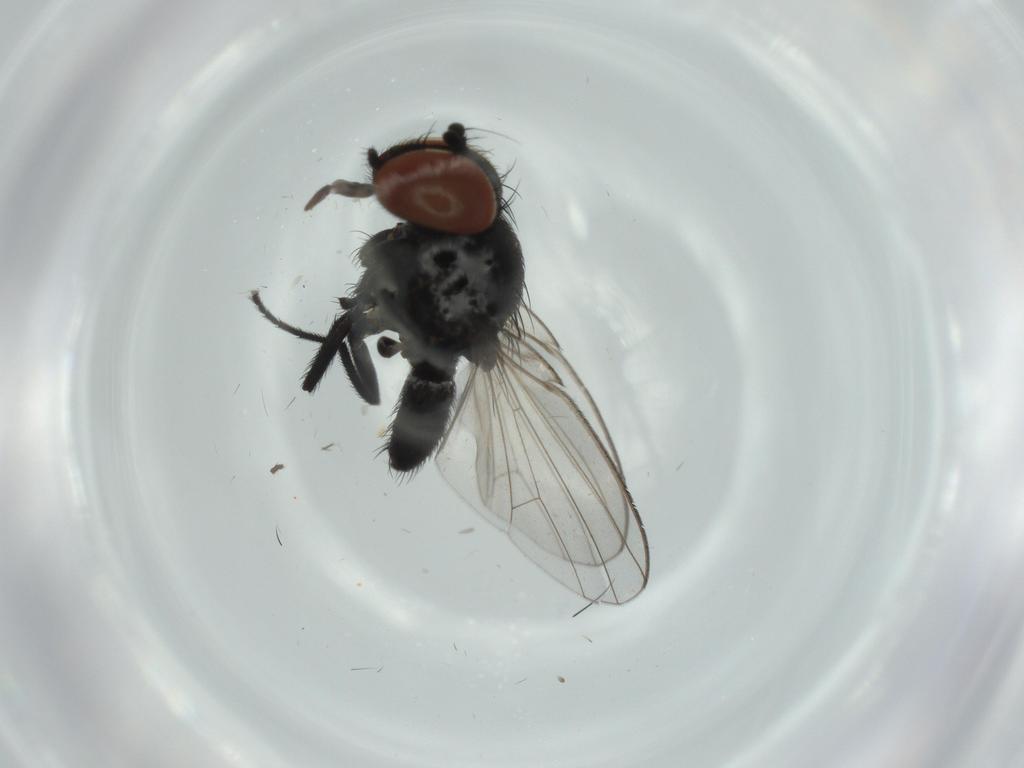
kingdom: Animalia
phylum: Arthropoda
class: Insecta
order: Diptera
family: Milichiidae
